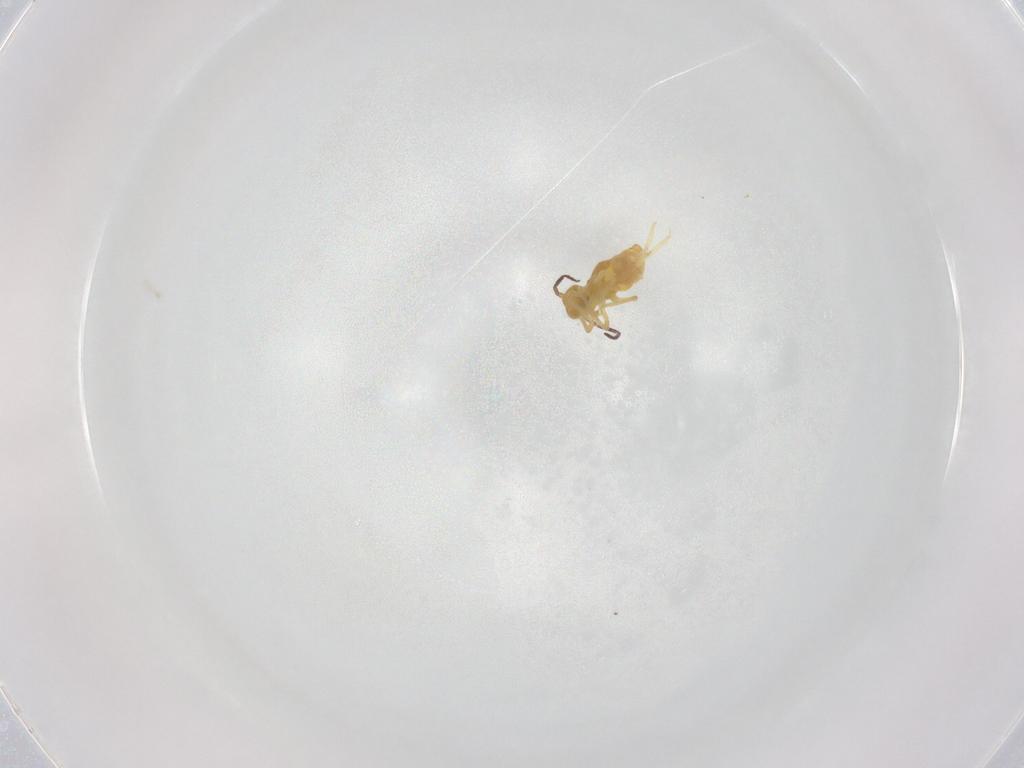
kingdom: Animalia
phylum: Arthropoda
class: Collembola
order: Symphypleona
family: Bourletiellidae
